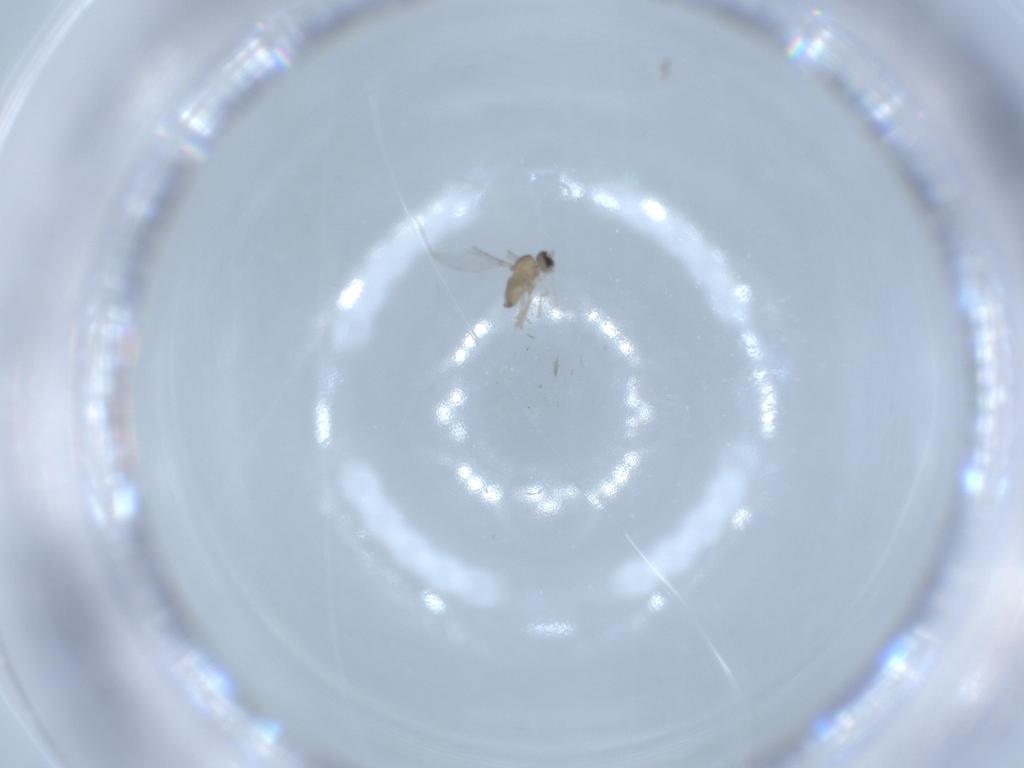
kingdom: Animalia
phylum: Arthropoda
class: Insecta
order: Diptera
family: Cecidomyiidae
